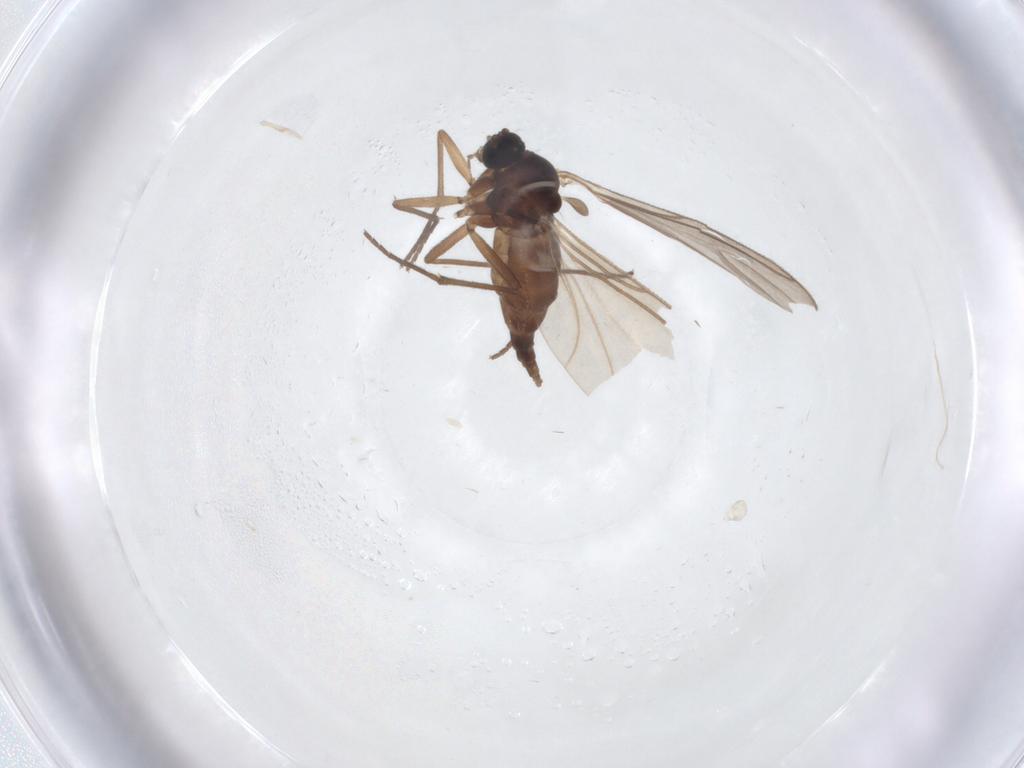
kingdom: Animalia
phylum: Arthropoda
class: Insecta
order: Diptera
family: Sciaridae
